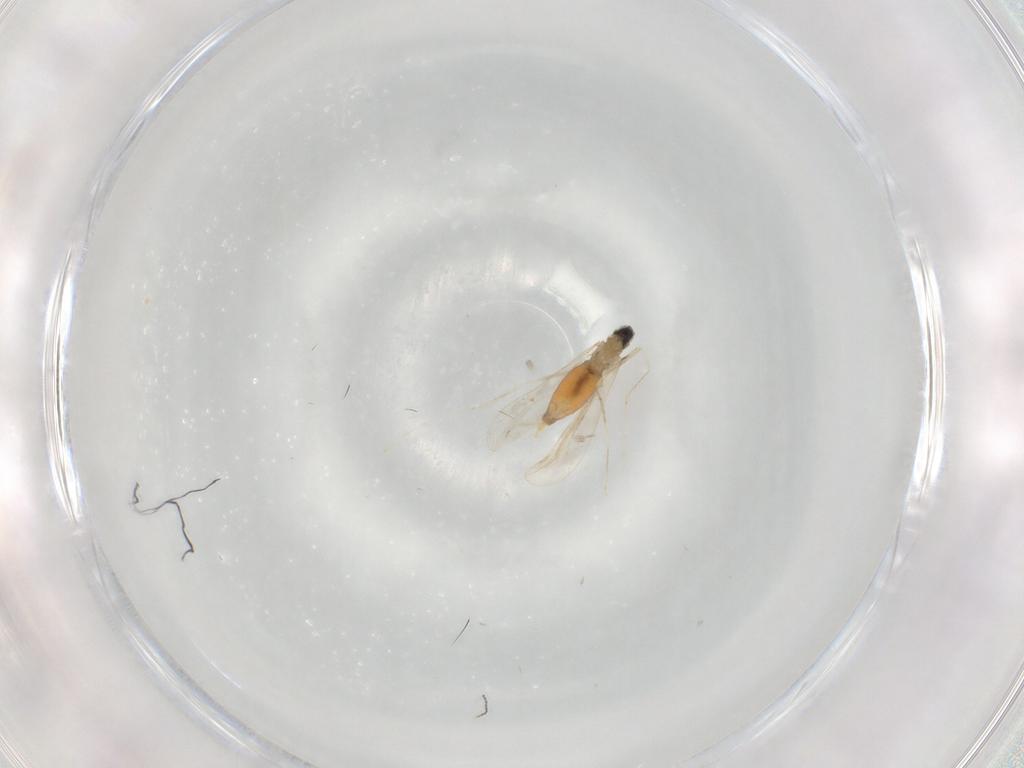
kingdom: Animalia
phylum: Arthropoda
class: Insecta
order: Diptera
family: Cecidomyiidae
